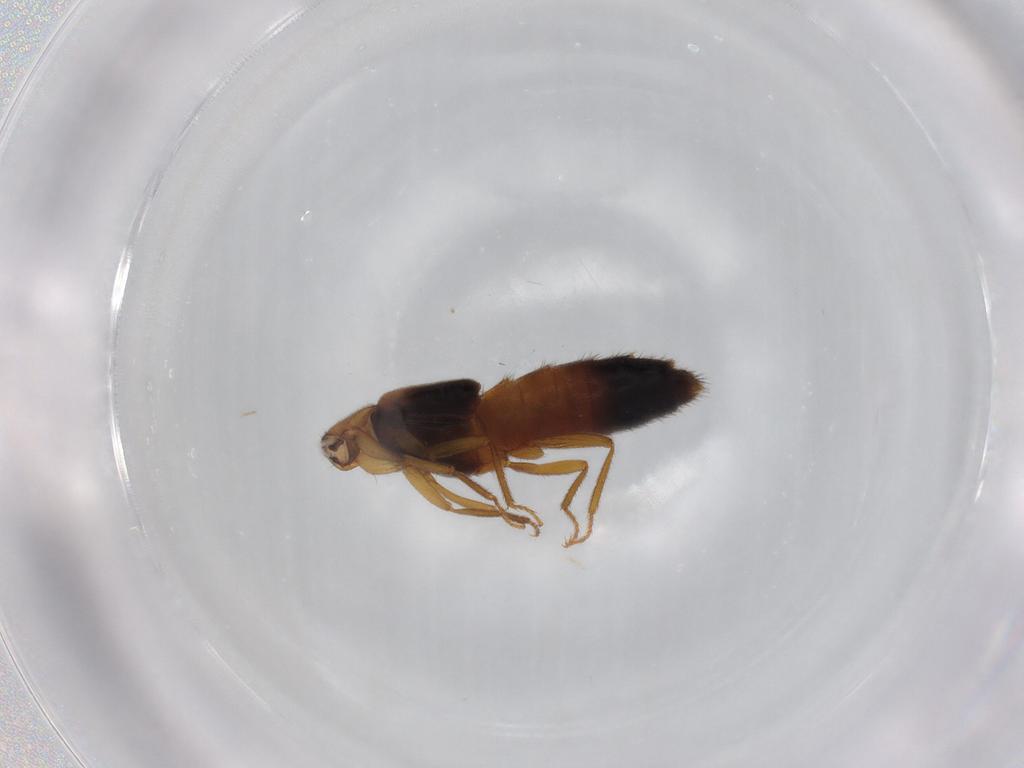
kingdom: Animalia
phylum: Arthropoda
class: Insecta
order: Coleoptera
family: Staphylinidae
